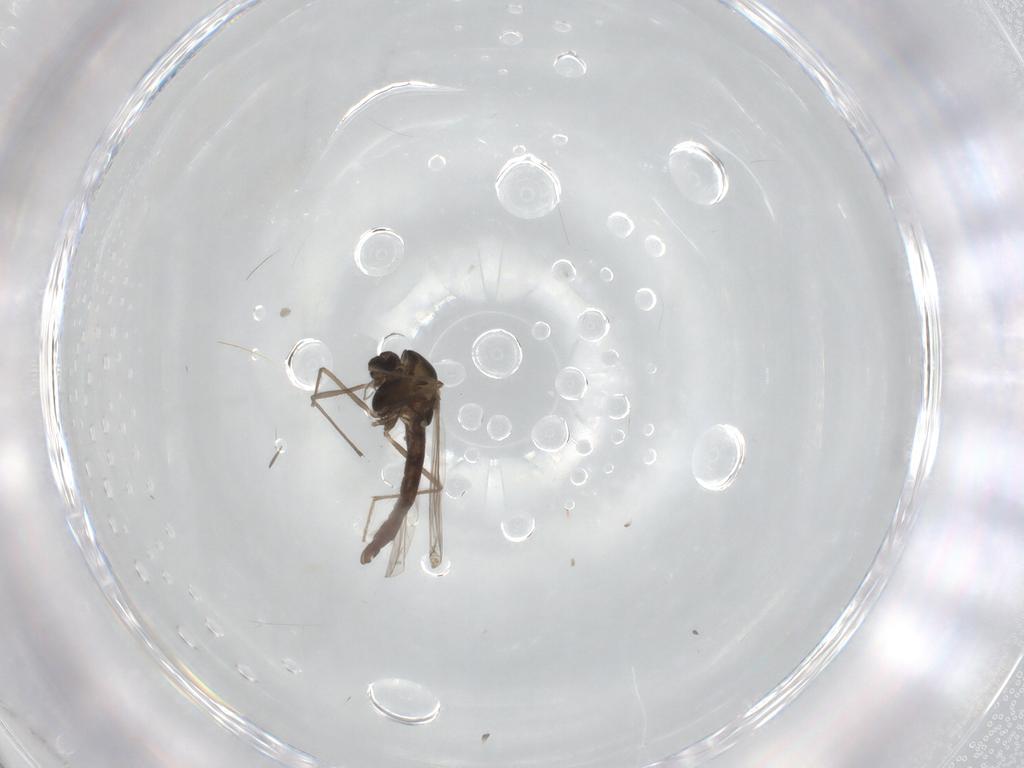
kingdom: Animalia
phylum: Arthropoda
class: Insecta
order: Diptera
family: Chironomidae
